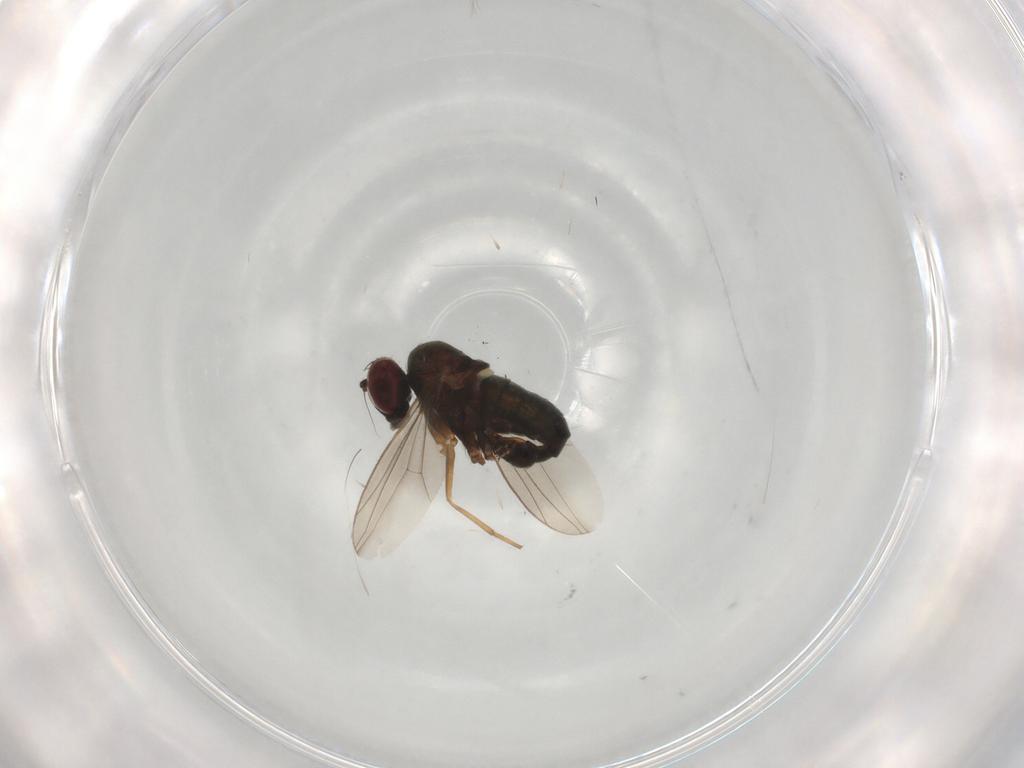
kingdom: Animalia
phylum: Arthropoda
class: Insecta
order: Diptera
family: Dolichopodidae
